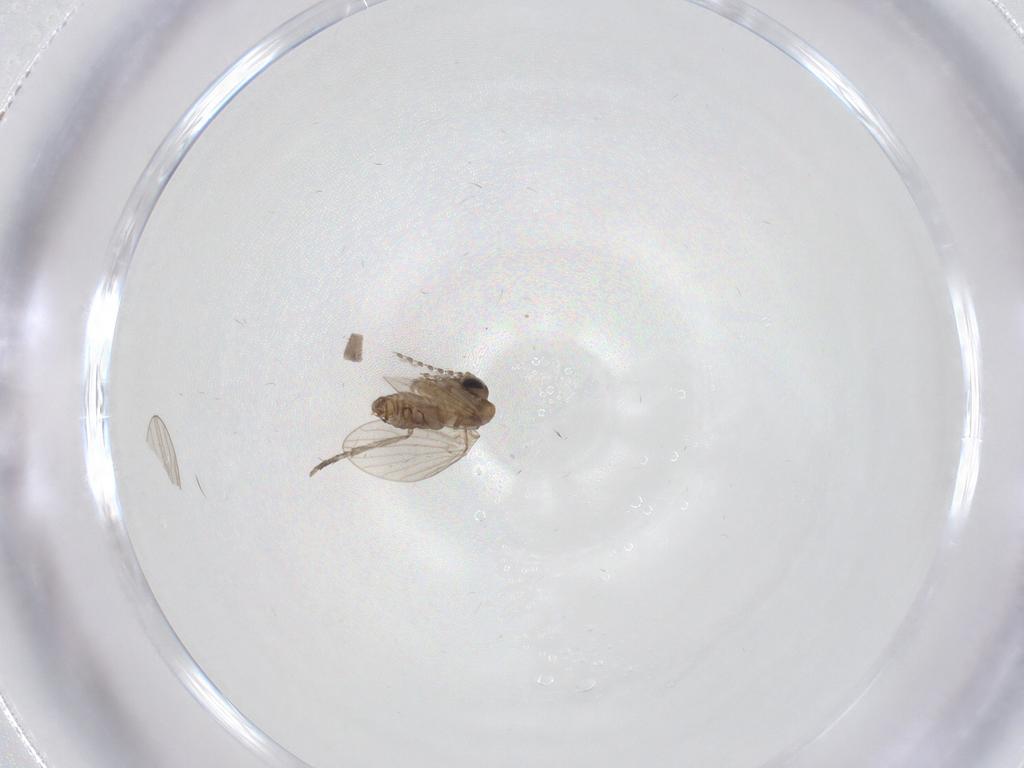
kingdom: Animalia
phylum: Arthropoda
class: Insecta
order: Diptera
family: Psychodidae
